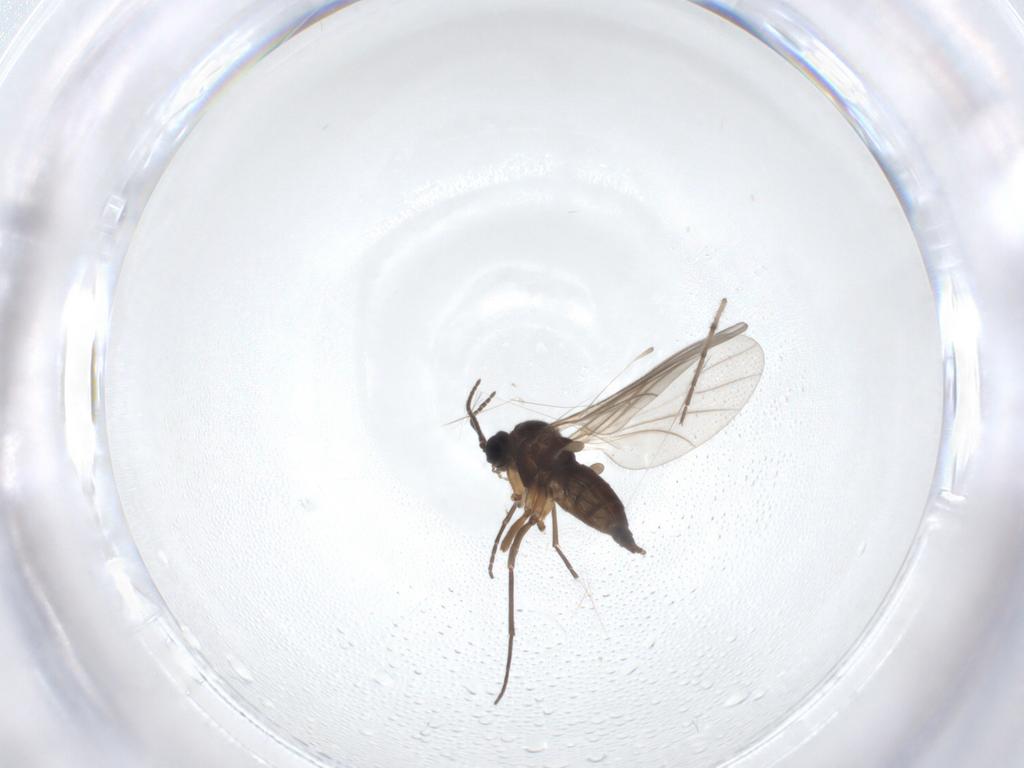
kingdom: Animalia
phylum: Arthropoda
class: Insecta
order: Diptera
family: Sciaridae
